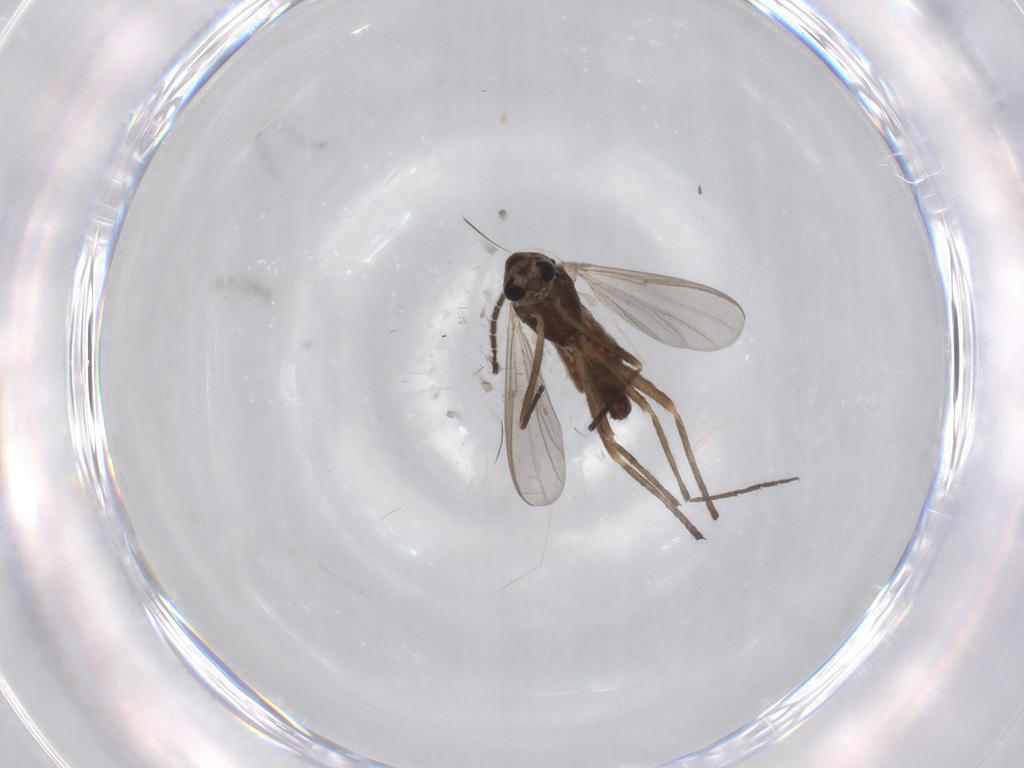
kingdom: Animalia
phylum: Arthropoda
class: Insecta
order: Diptera
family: Chironomidae
